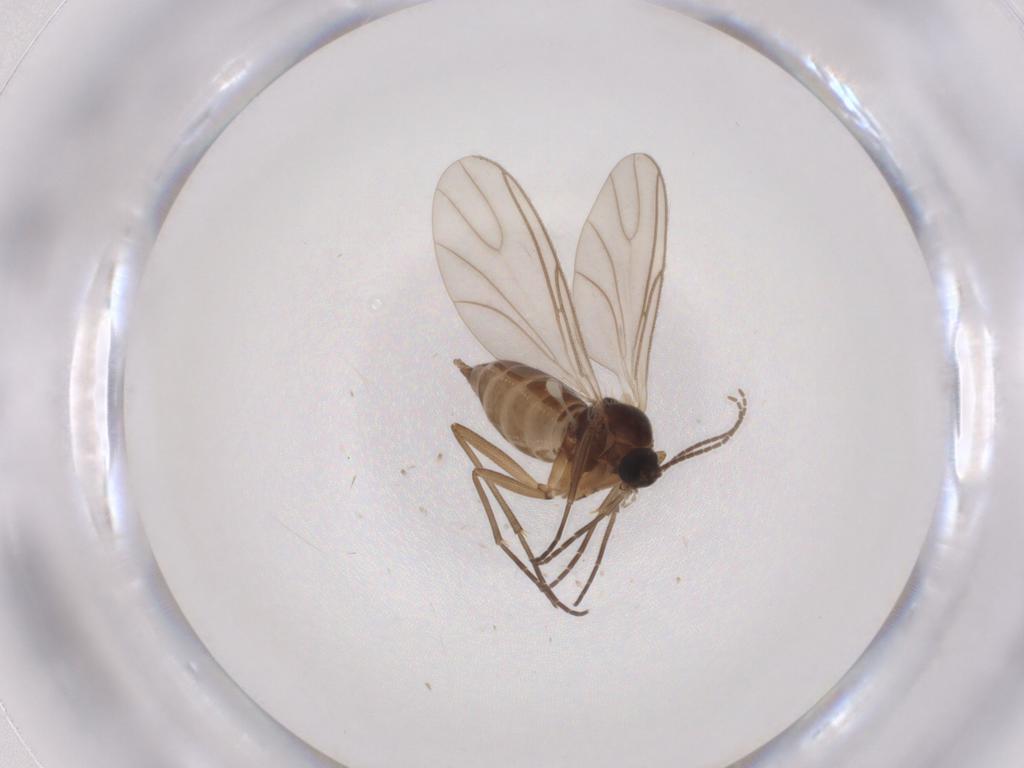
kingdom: Animalia
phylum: Arthropoda
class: Insecta
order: Diptera
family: Sciaridae
